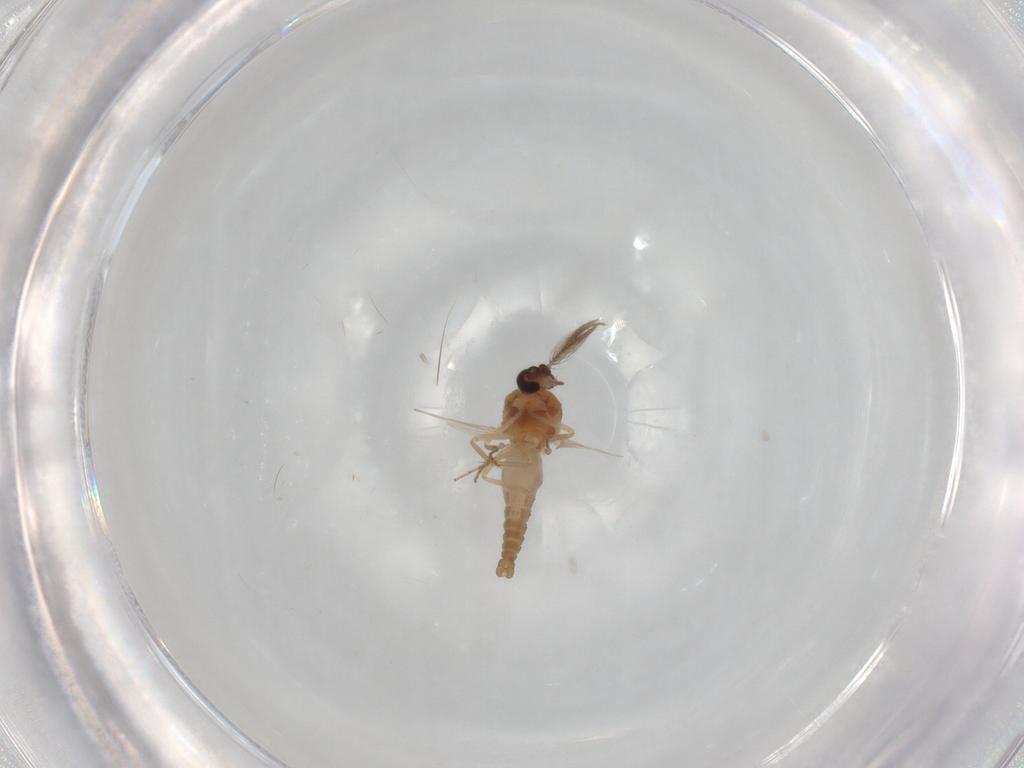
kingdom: Animalia
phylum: Arthropoda
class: Insecta
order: Diptera
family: Ceratopogonidae
